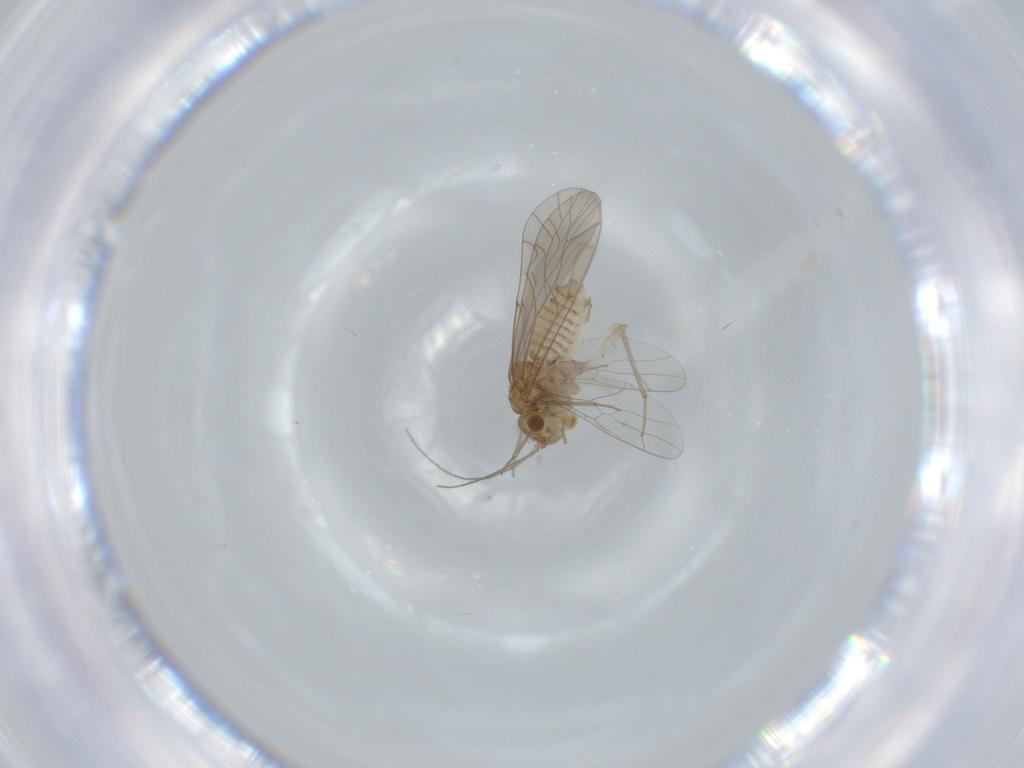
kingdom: Animalia
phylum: Arthropoda
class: Insecta
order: Psocodea
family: Lachesillidae
